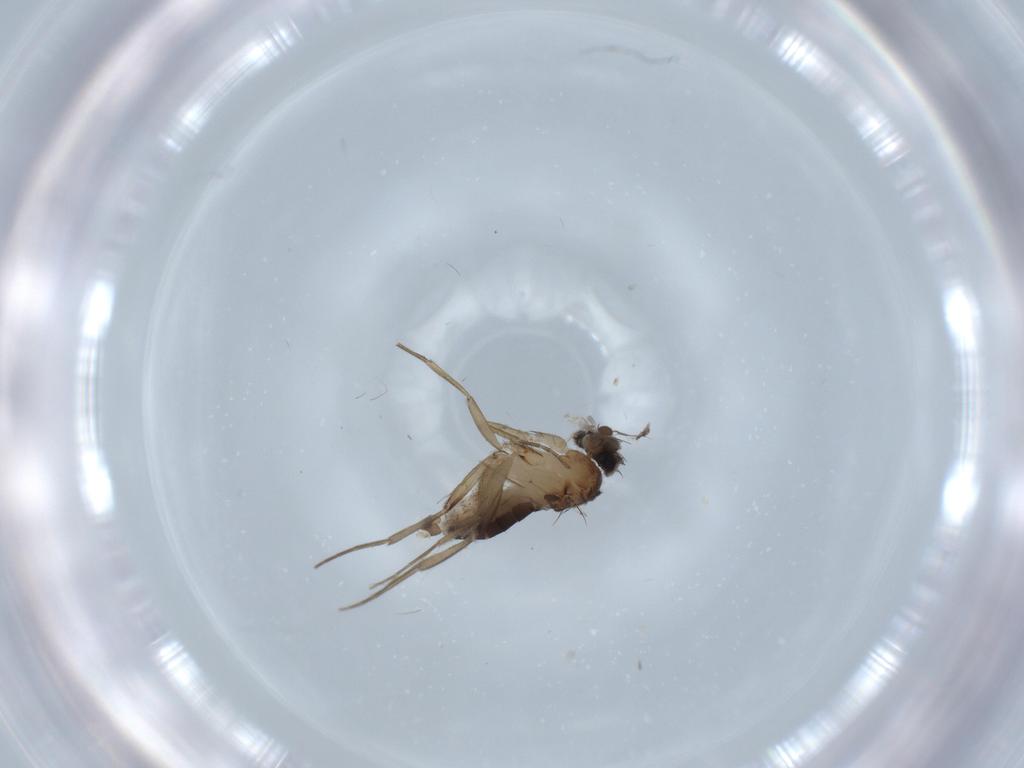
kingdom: Animalia
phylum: Arthropoda
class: Insecta
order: Diptera
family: Phoridae
